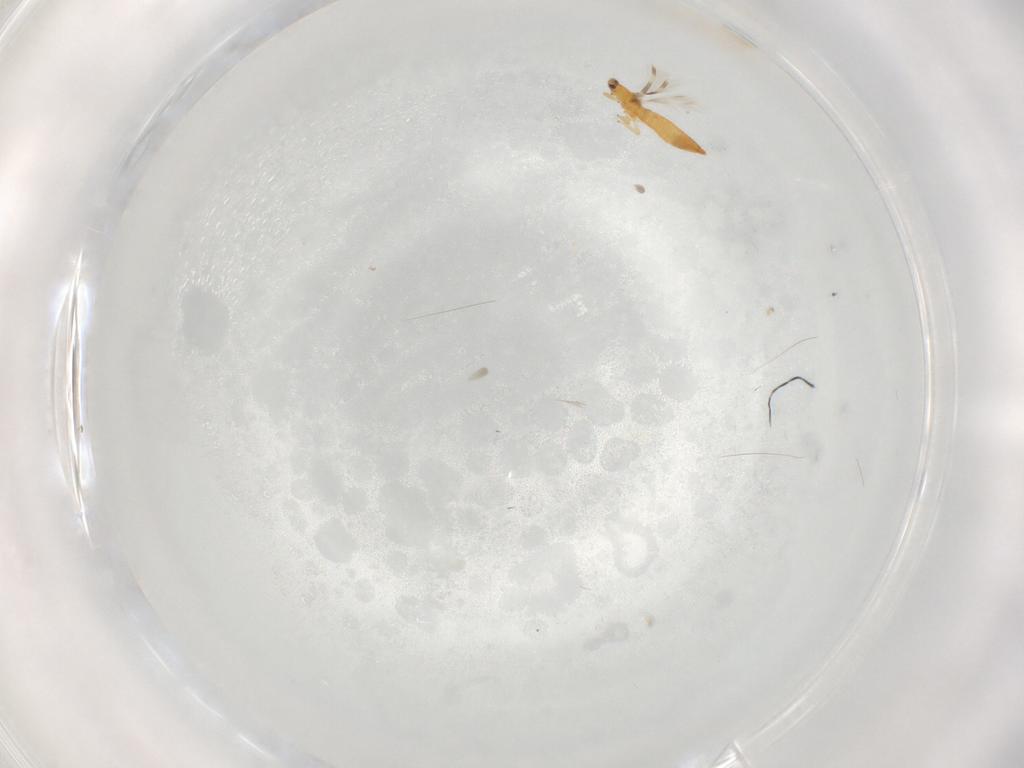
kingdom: Animalia
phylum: Arthropoda
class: Insecta
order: Thysanoptera
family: Thripidae
